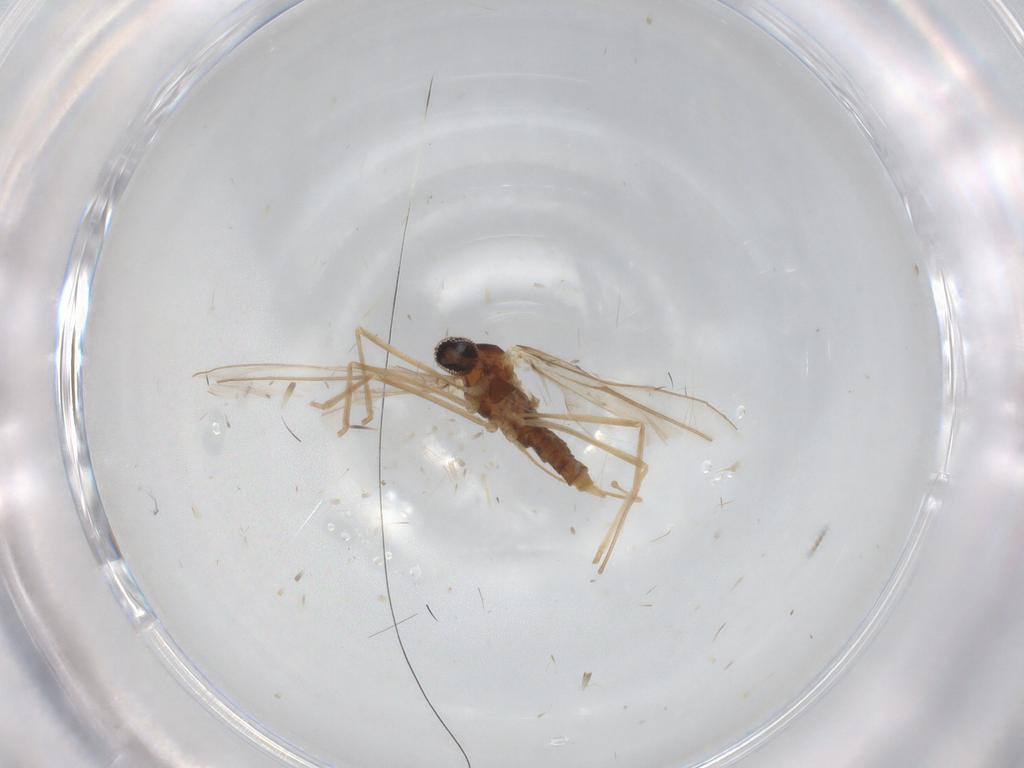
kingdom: Animalia
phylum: Arthropoda
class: Insecta
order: Diptera
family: Cecidomyiidae
